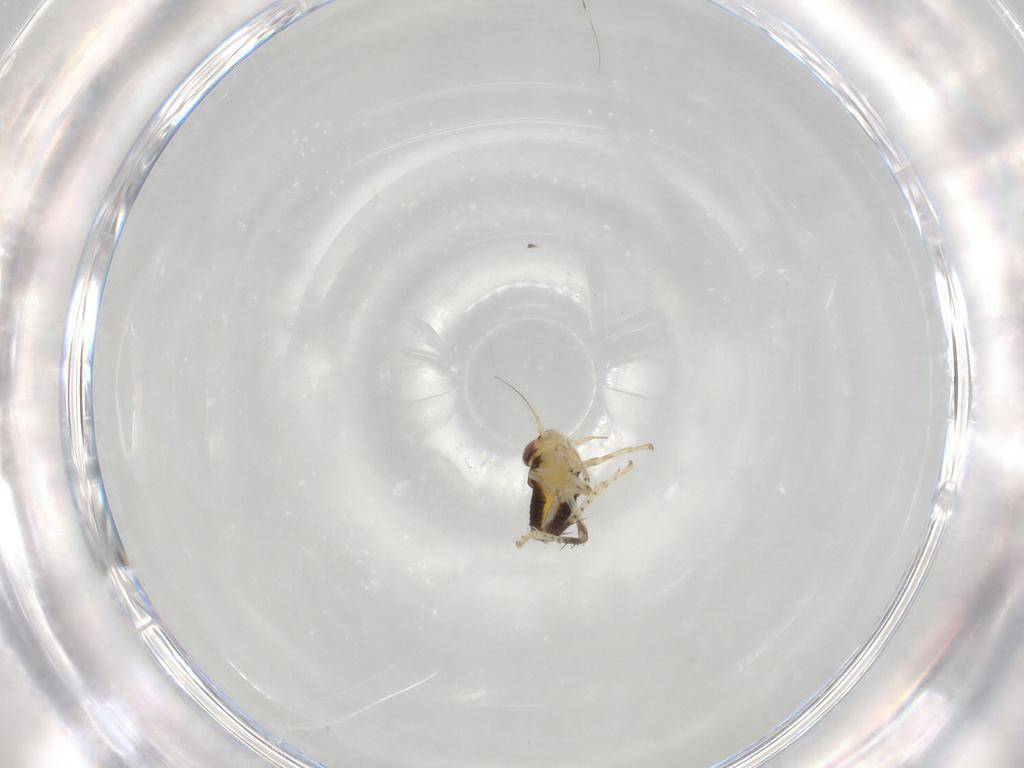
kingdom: Animalia
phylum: Arthropoda
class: Insecta
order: Hemiptera
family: Cicadellidae
